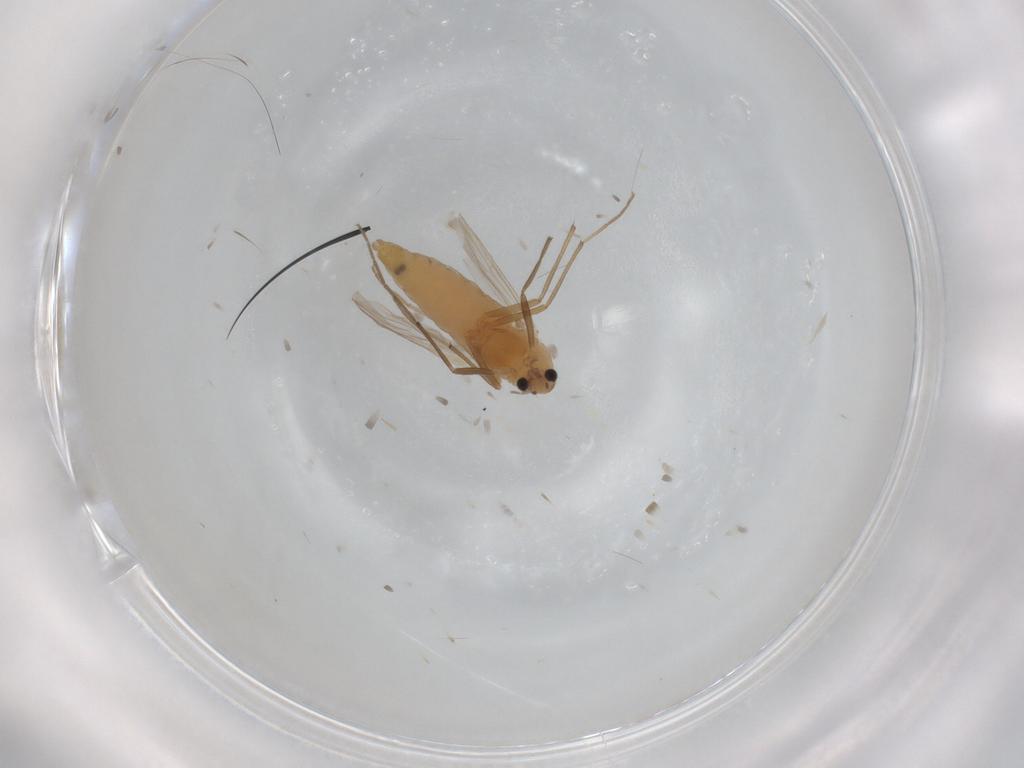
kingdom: Animalia
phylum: Arthropoda
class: Insecta
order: Diptera
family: Chironomidae
